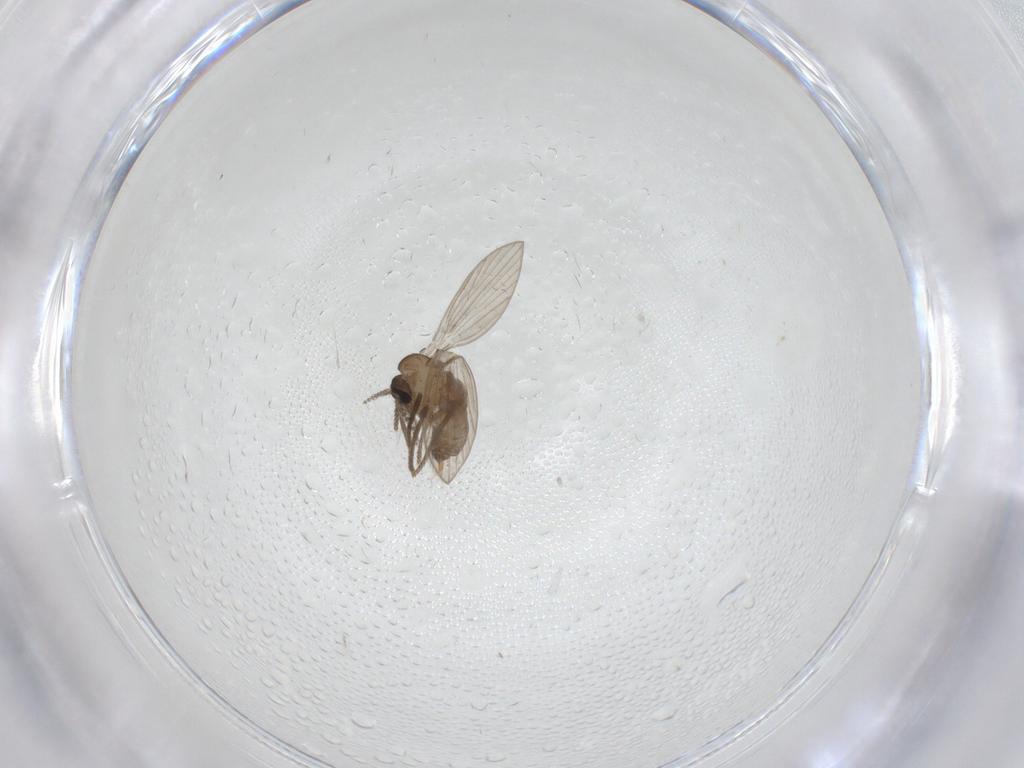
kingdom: Animalia
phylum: Arthropoda
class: Insecta
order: Diptera
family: Psychodidae
